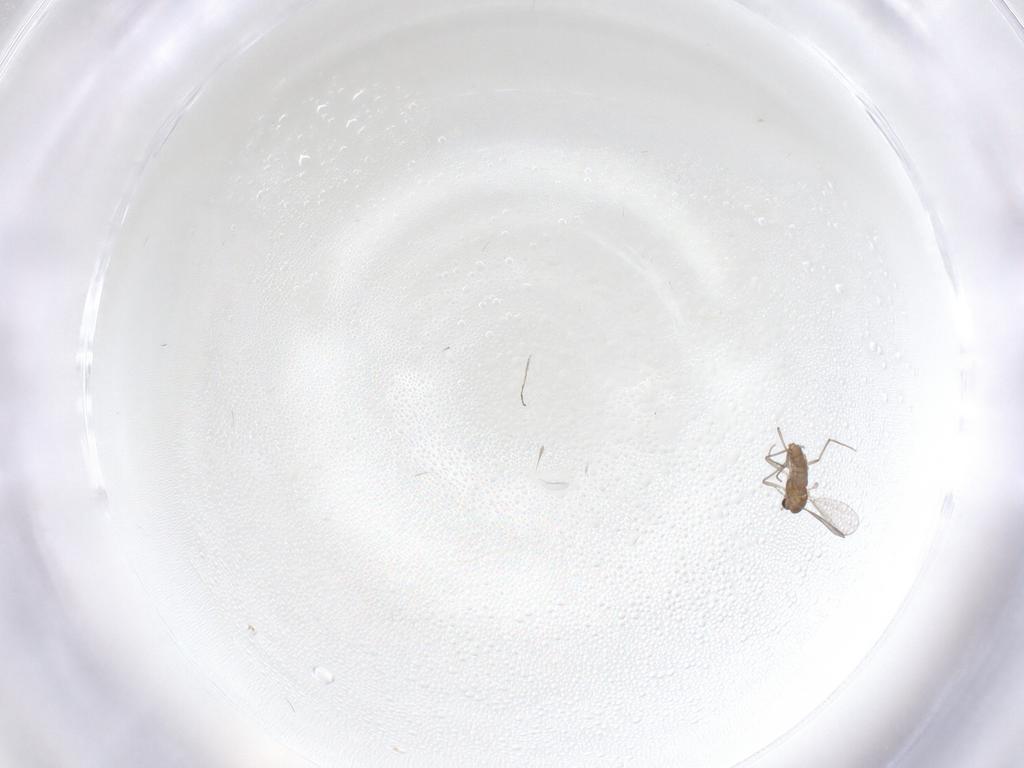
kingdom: Animalia
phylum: Arthropoda
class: Insecta
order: Diptera
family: Chironomidae
